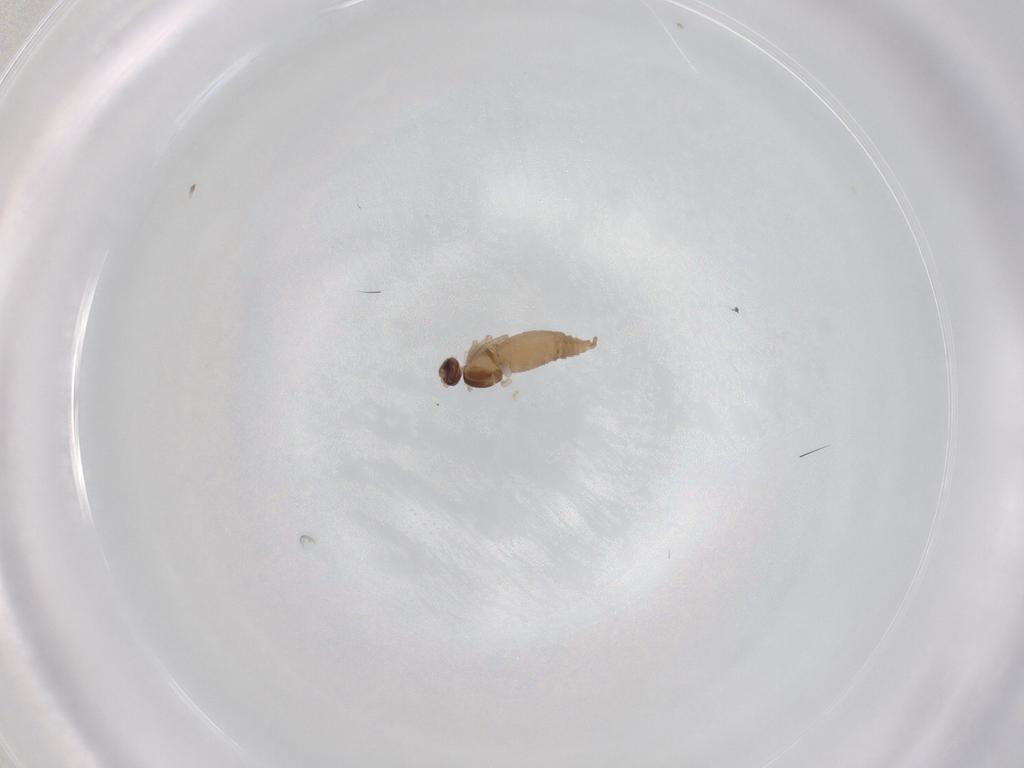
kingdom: Animalia
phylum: Arthropoda
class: Insecta
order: Diptera
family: Cecidomyiidae
